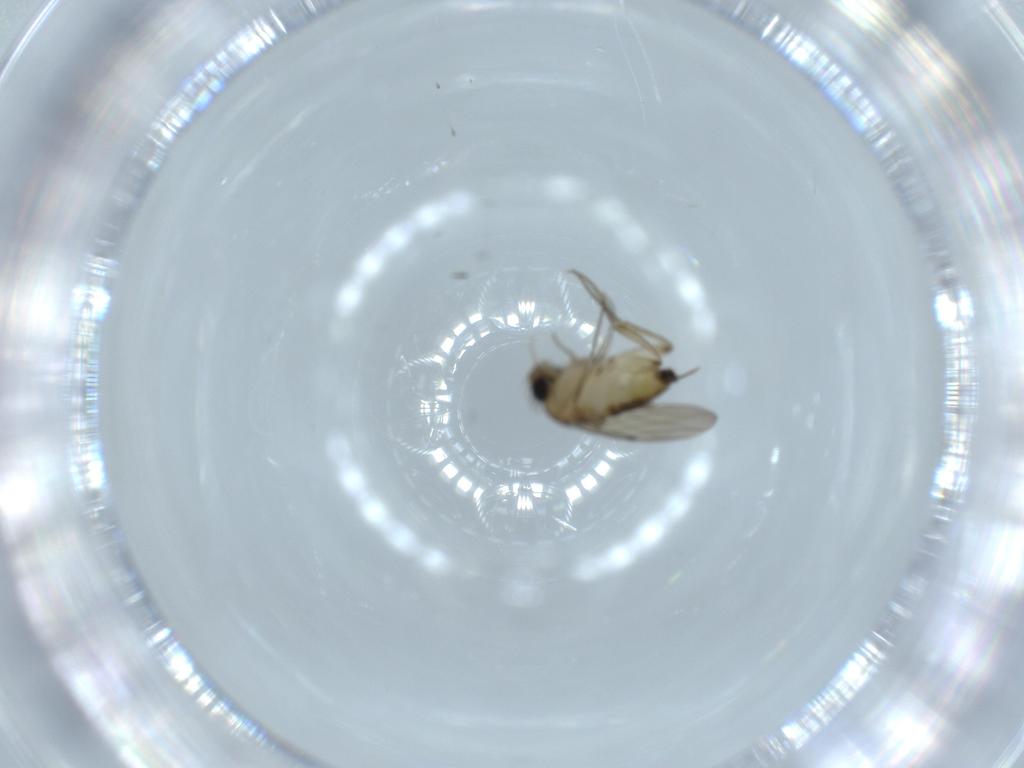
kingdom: Animalia
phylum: Arthropoda
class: Insecta
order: Diptera
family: Phoridae
